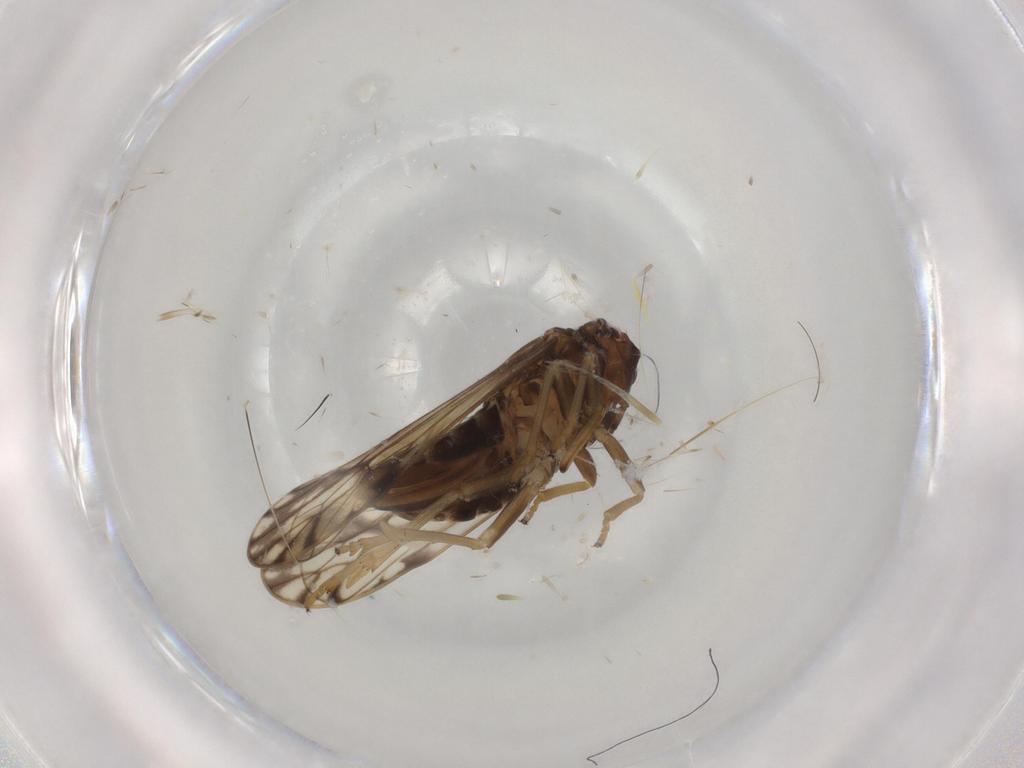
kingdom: Animalia
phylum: Arthropoda
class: Insecta
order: Hemiptera
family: Delphacidae
